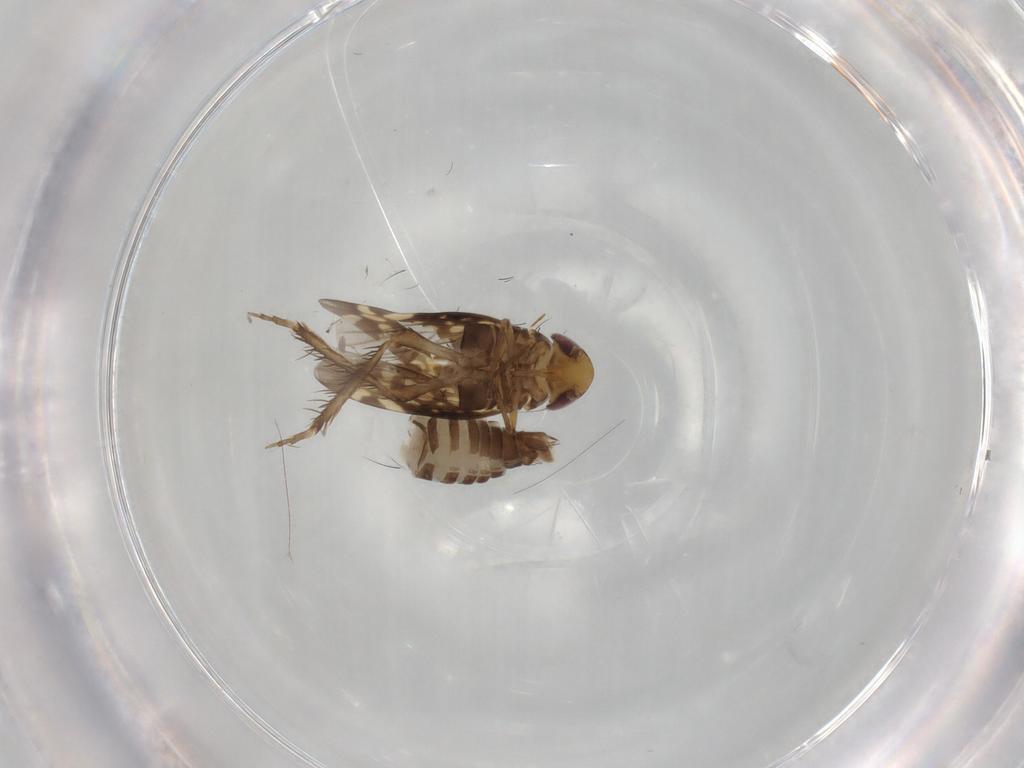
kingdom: Animalia
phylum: Arthropoda
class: Insecta
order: Hemiptera
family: Cicadellidae
